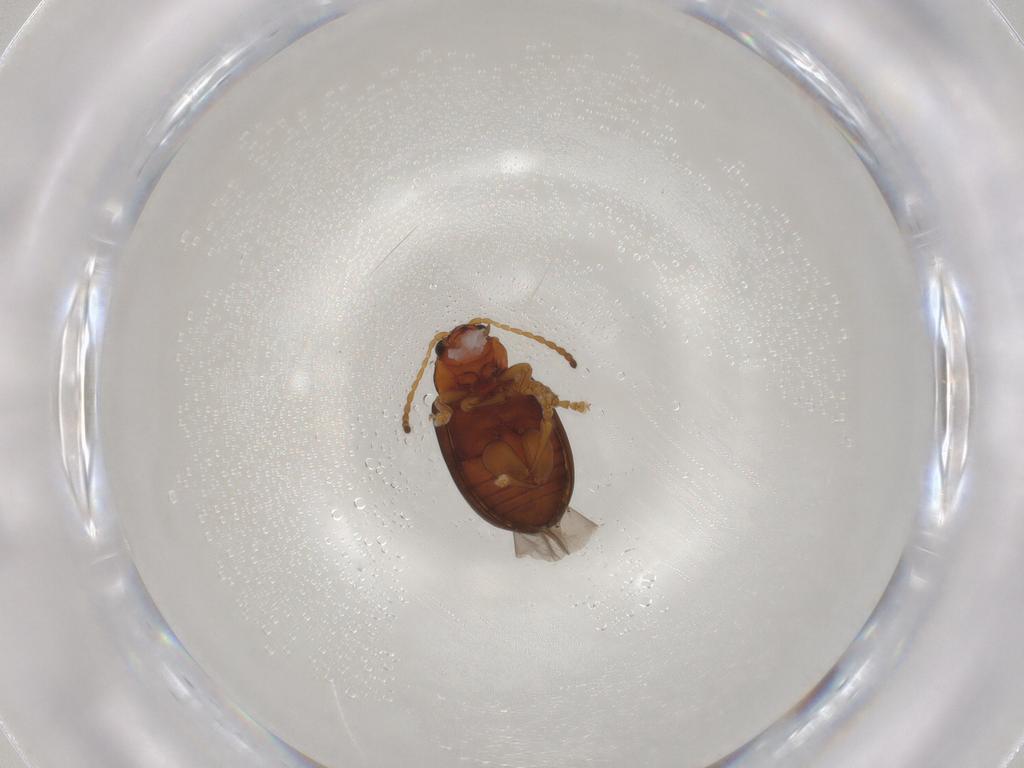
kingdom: Animalia
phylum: Arthropoda
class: Insecta
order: Coleoptera
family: Chrysomelidae
